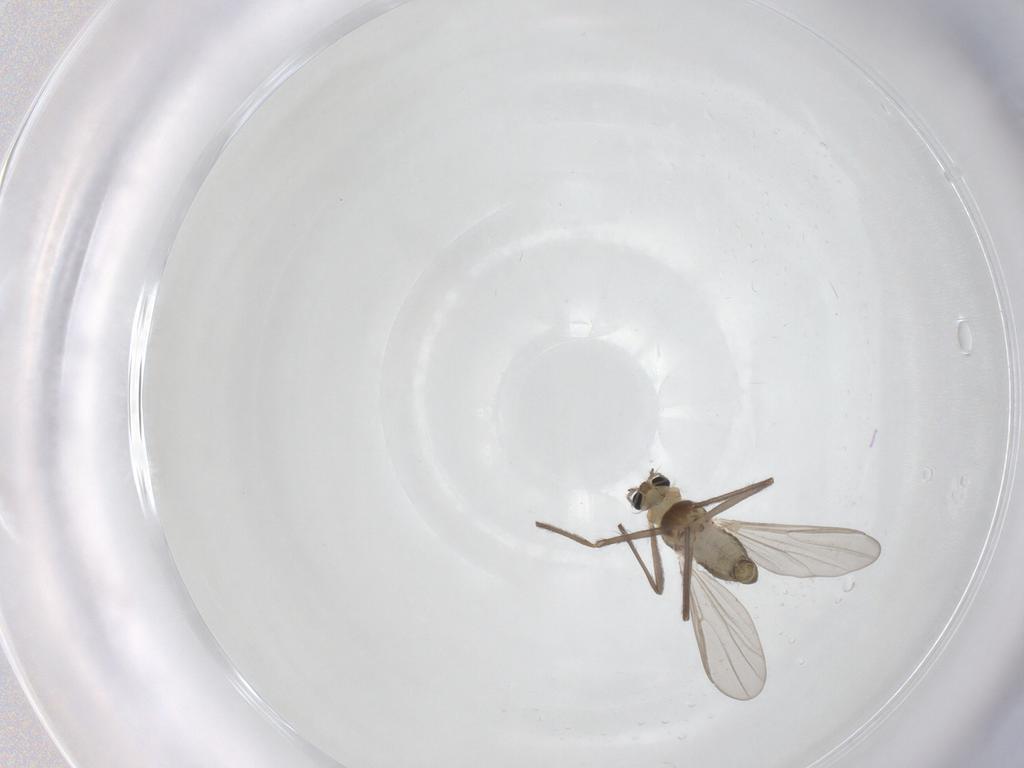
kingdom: Animalia
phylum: Arthropoda
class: Insecta
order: Diptera
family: Chironomidae
